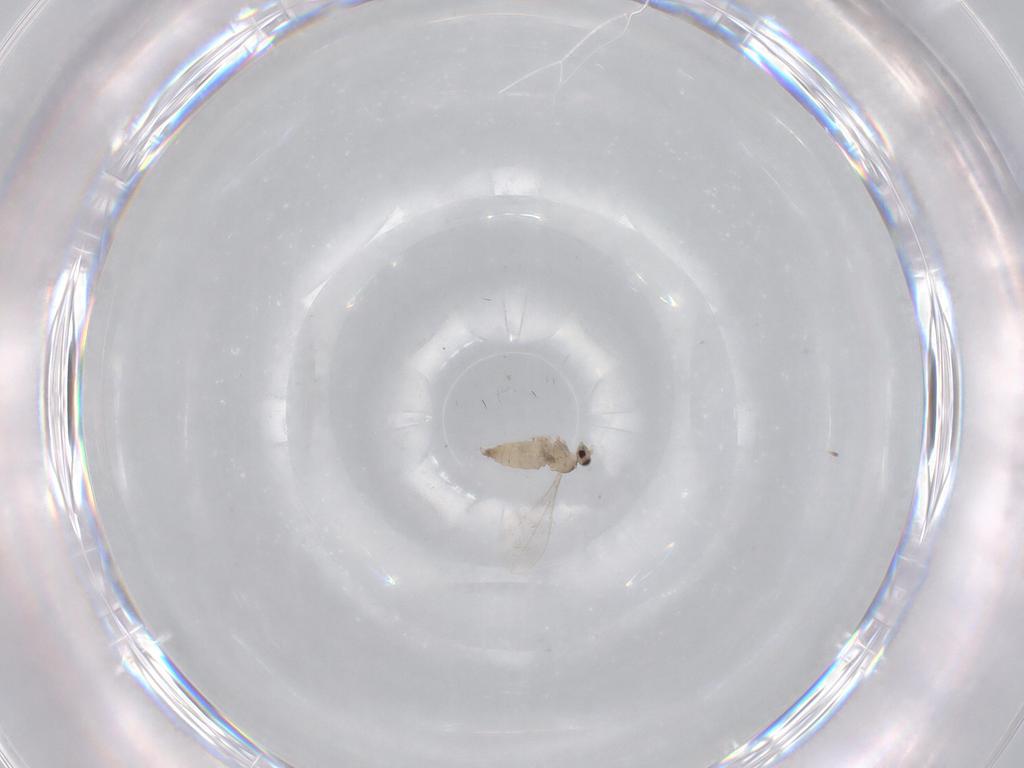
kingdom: Animalia
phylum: Arthropoda
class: Insecta
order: Diptera
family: Cecidomyiidae
